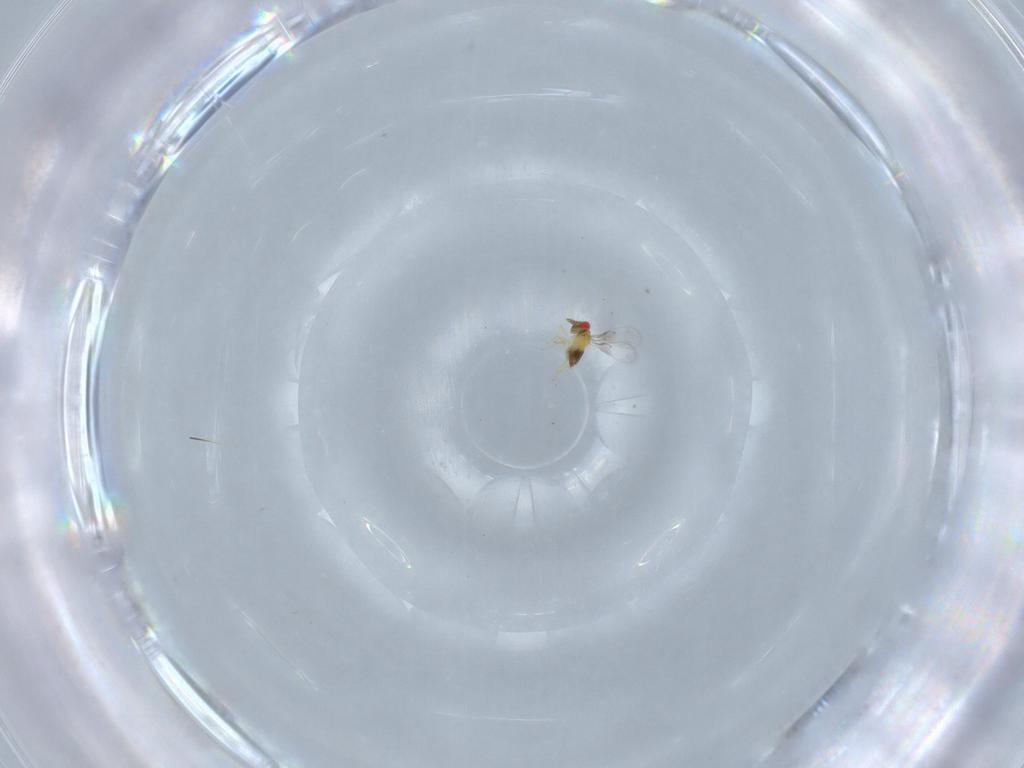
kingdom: Animalia
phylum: Arthropoda
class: Insecta
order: Hymenoptera
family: Trichogrammatidae
